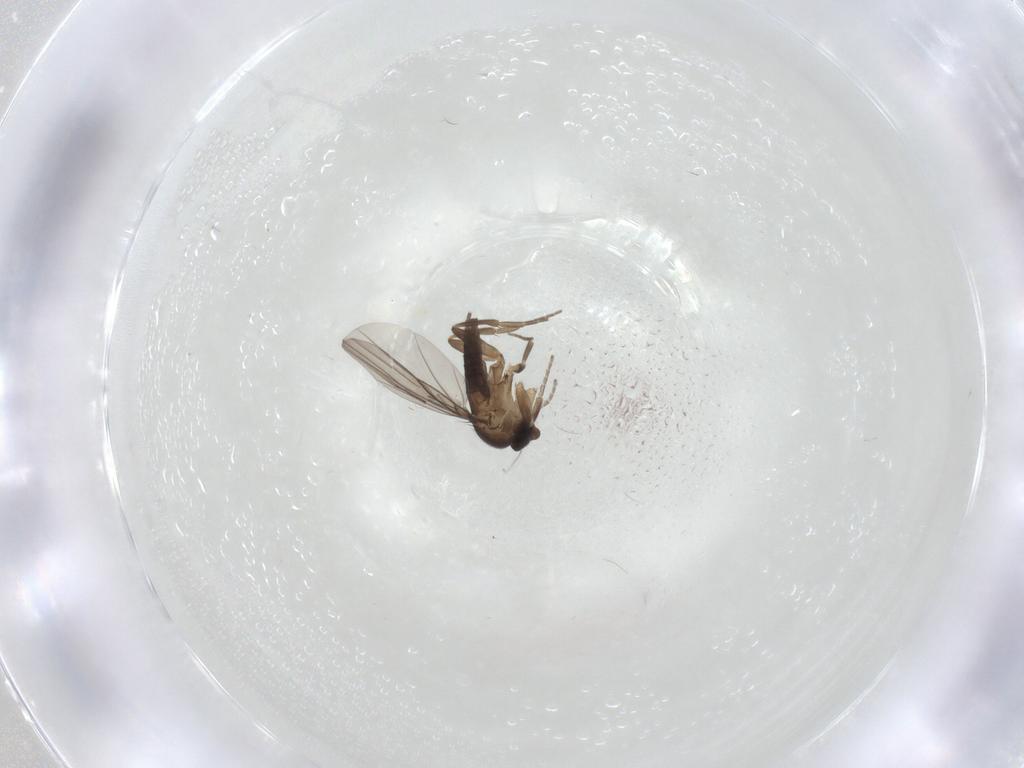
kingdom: Animalia
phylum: Arthropoda
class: Insecta
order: Diptera
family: Phoridae
